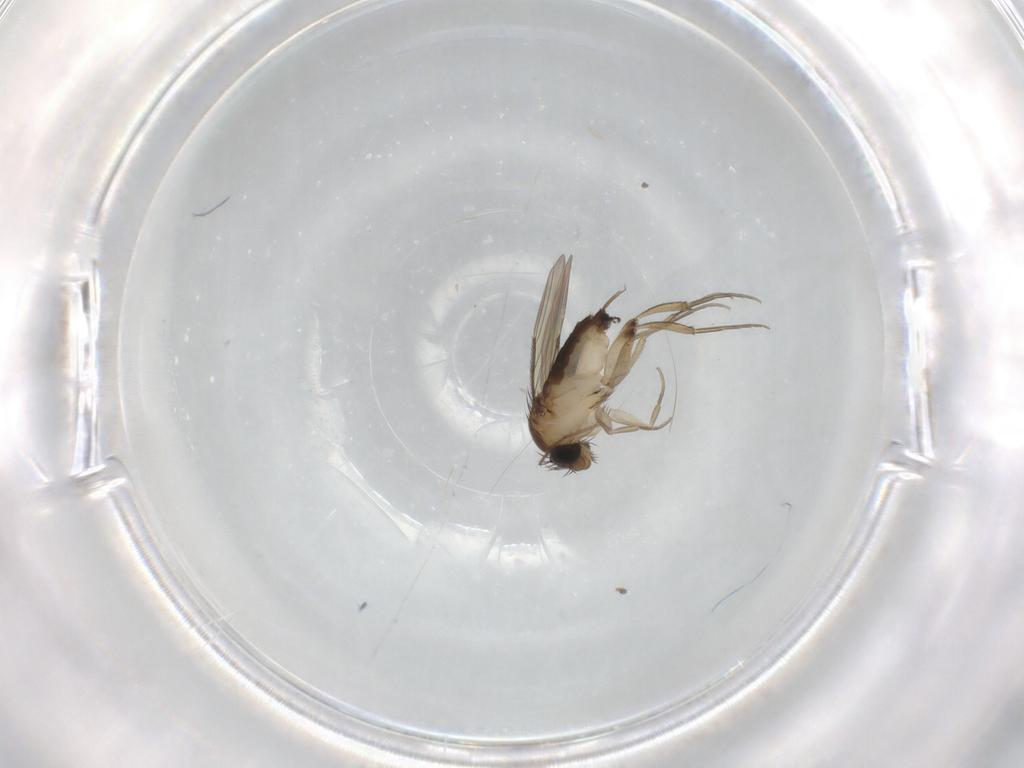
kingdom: Animalia
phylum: Arthropoda
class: Insecta
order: Diptera
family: Phoridae
